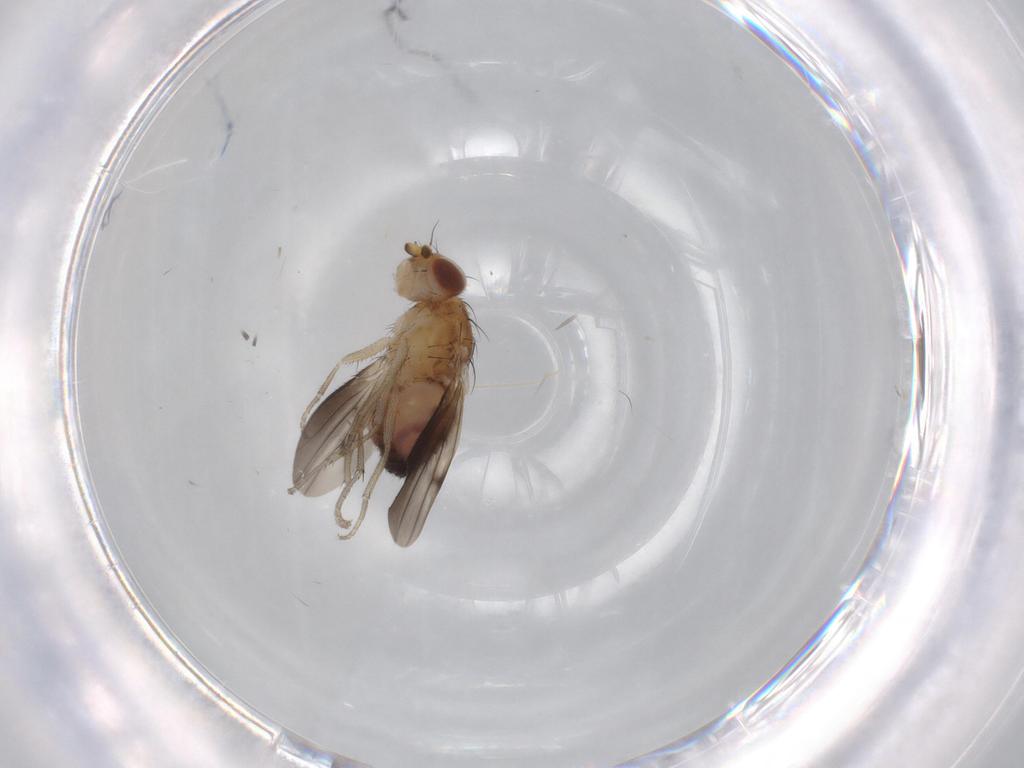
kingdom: Animalia
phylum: Arthropoda
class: Insecta
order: Diptera
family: Heleomyzidae
